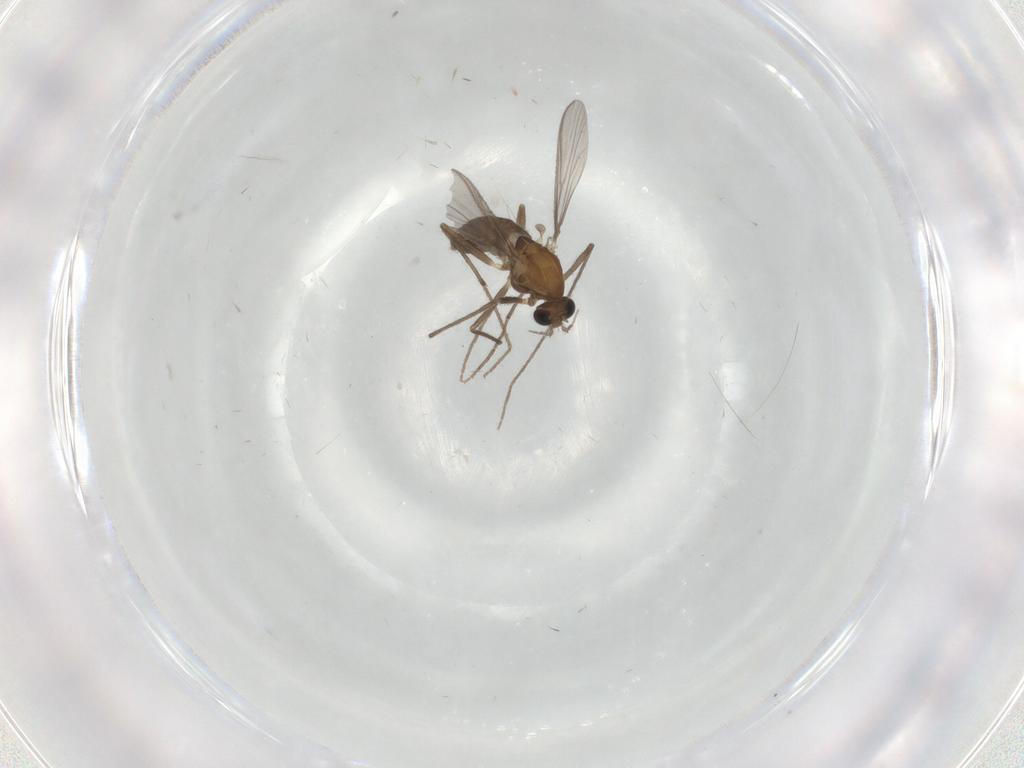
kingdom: Animalia
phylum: Arthropoda
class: Insecta
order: Diptera
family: Chironomidae
